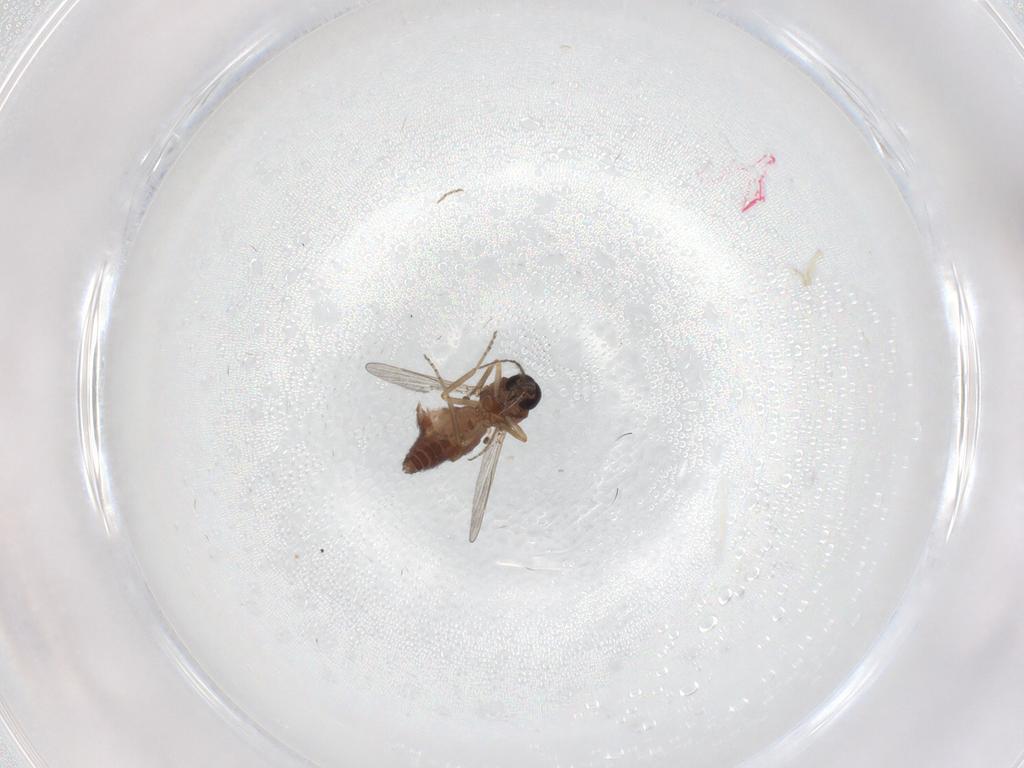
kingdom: Animalia
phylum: Arthropoda
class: Insecta
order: Diptera
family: Ceratopogonidae
